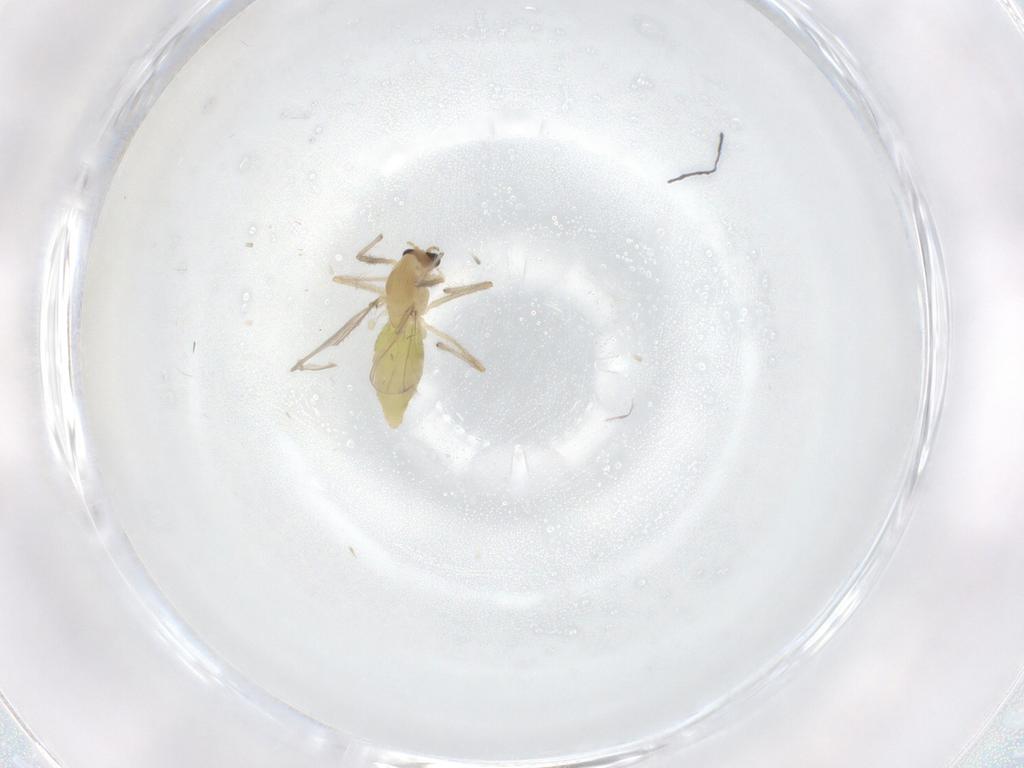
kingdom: Animalia
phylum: Arthropoda
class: Insecta
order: Diptera
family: Chironomidae
